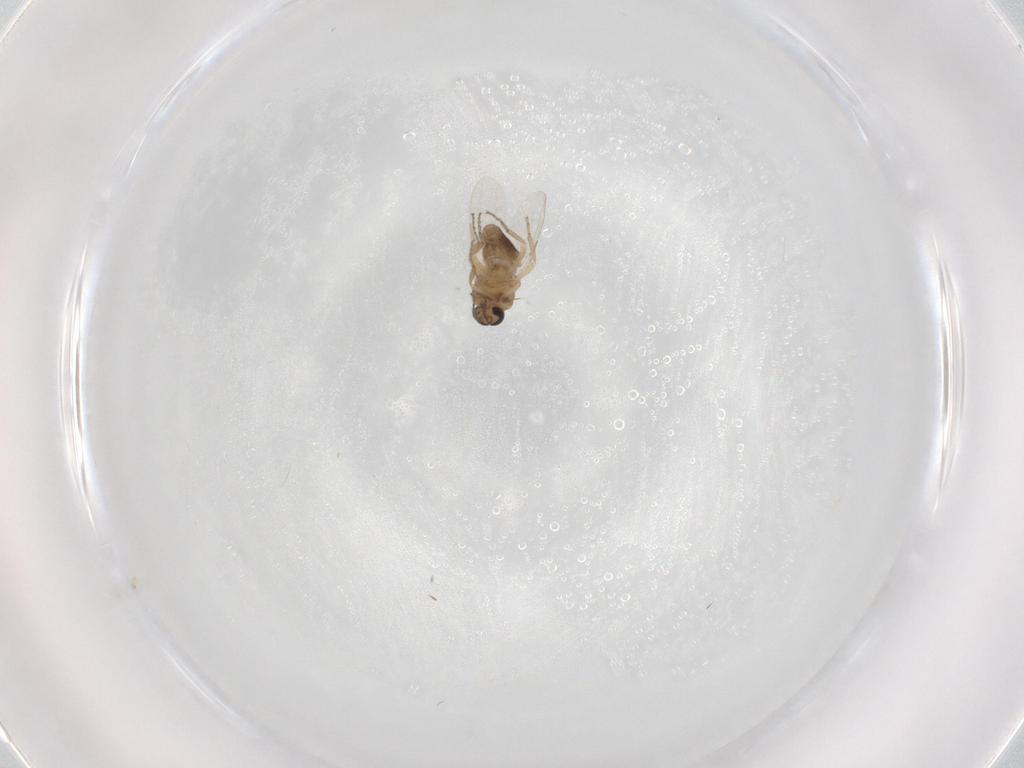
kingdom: Animalia
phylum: Arthropoda
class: Insecta
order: Diptera
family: Ceratopogonidae
